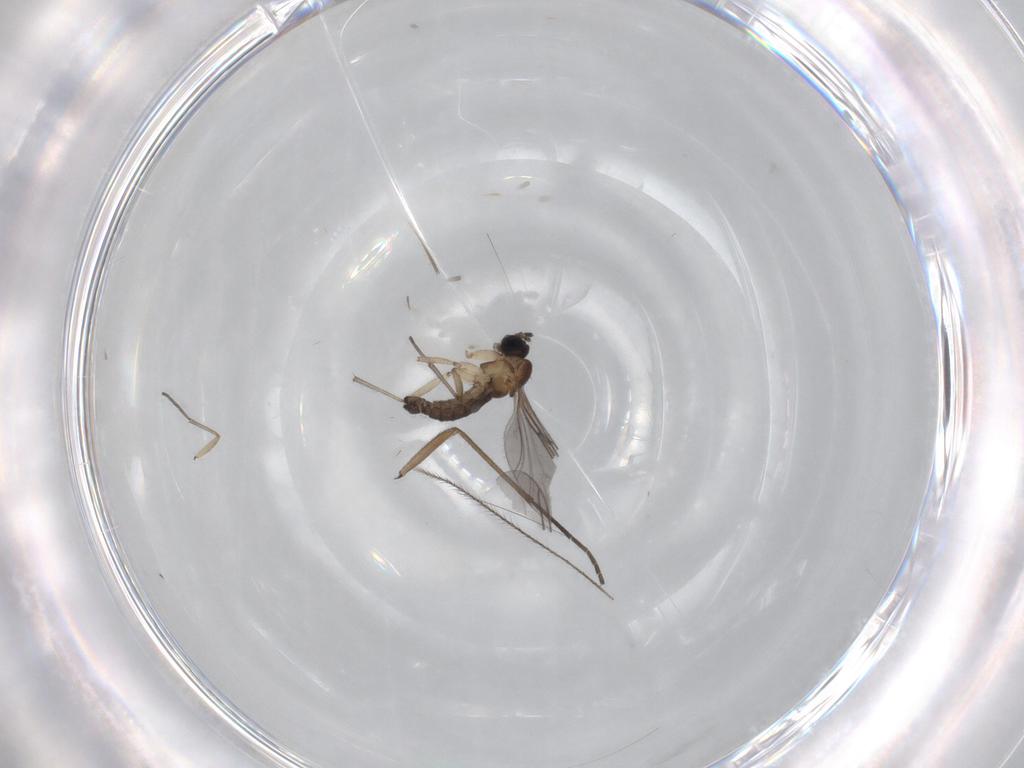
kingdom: Animalia
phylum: Arthropoda
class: Insecta
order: Diptera
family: Sciaridae
